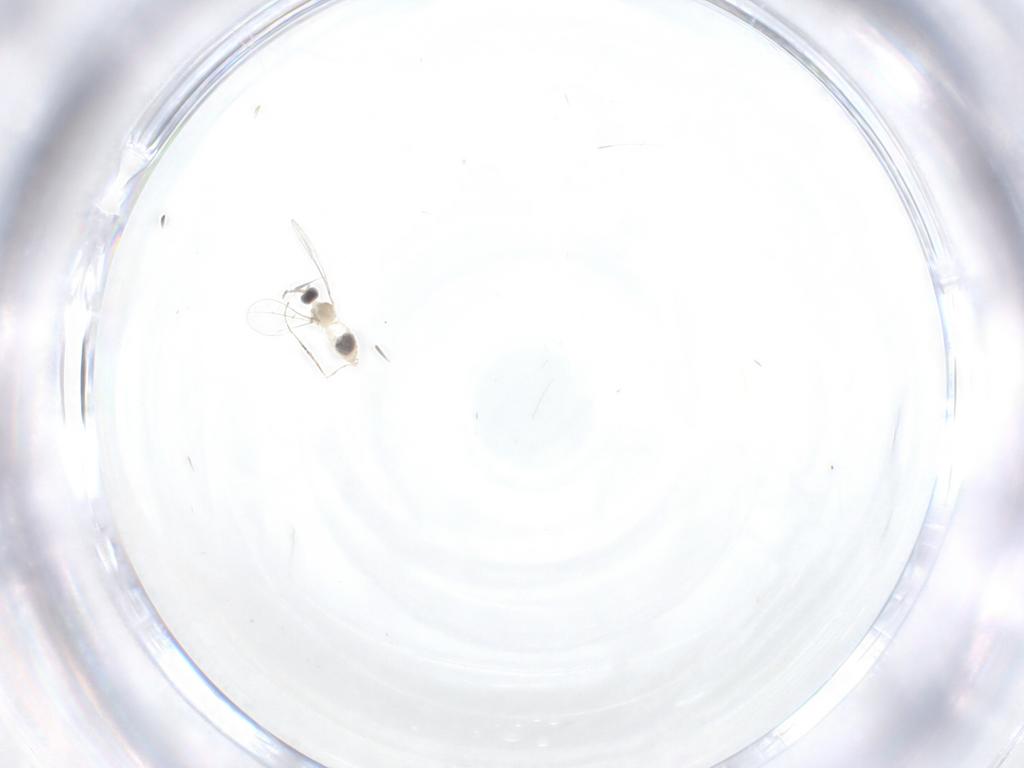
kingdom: Animalia
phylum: Arthropoda
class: Insecta
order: Diptera
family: Cecidomyiidae
